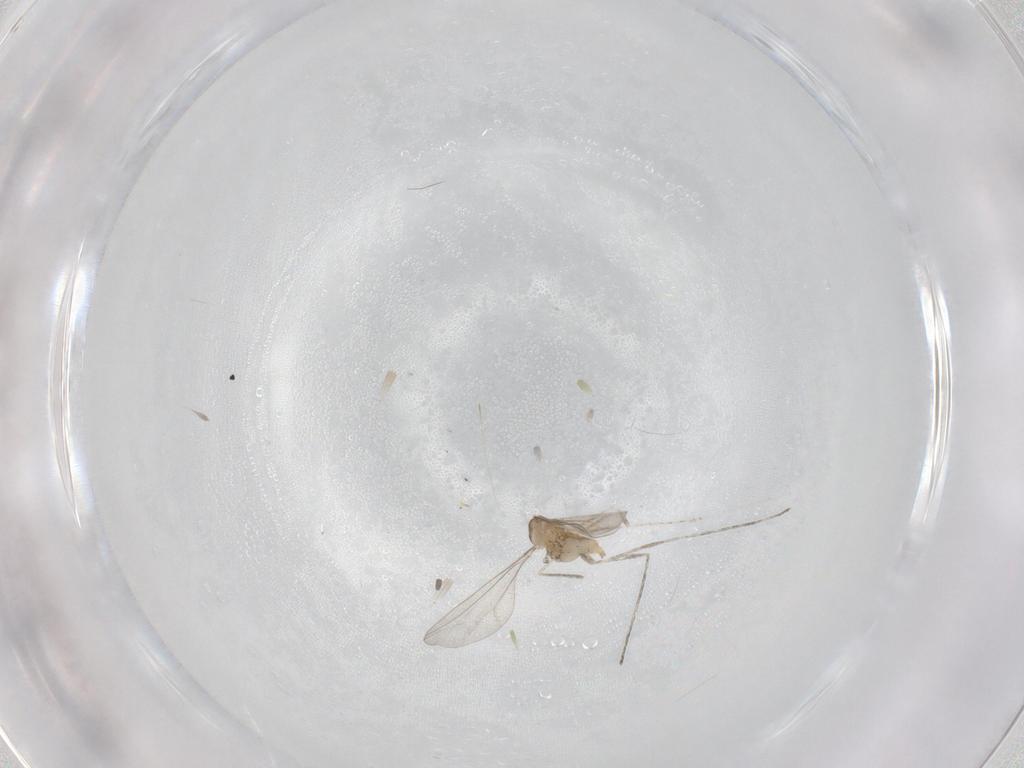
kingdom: Animalia
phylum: Arthropoda
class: Insecta
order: Diptera
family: Cecidomyiidae
